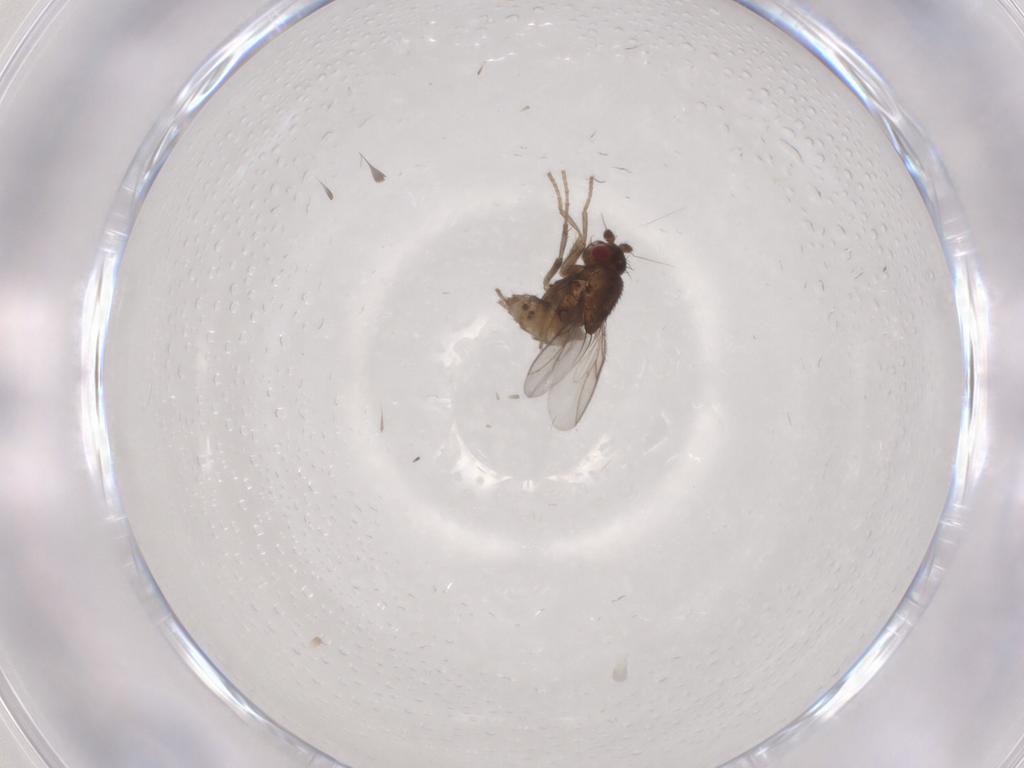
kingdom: Animalia
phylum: Arthropoda
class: Insecta
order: Diptera
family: Sphaeroceridae
